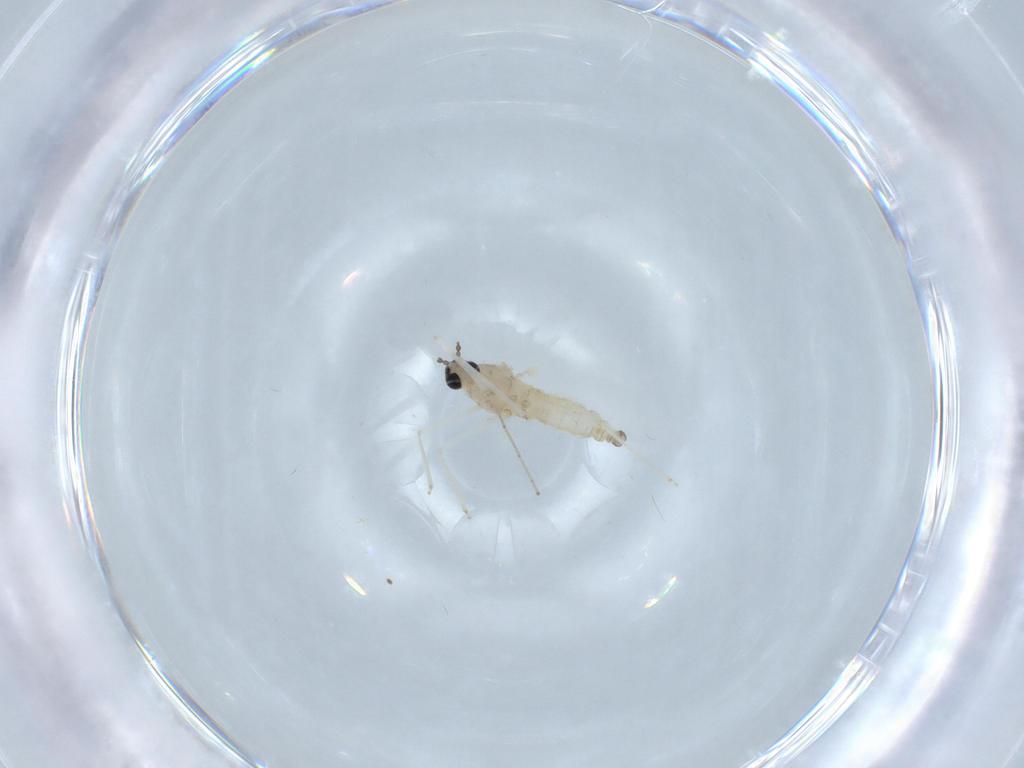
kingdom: Animalia
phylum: Arthropoda
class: Insecta
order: Diptera
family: Cecidomyiidae
